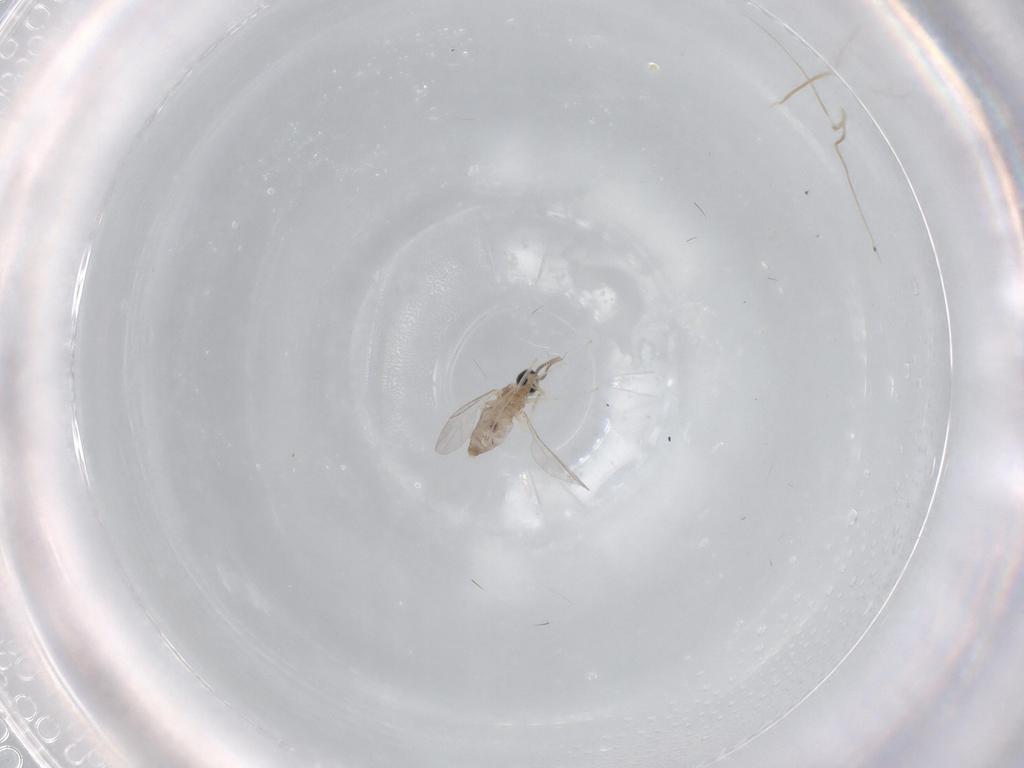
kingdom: Animalia
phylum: Arthropoda
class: Insecta
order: Diptera
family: Cecidomyiidae
